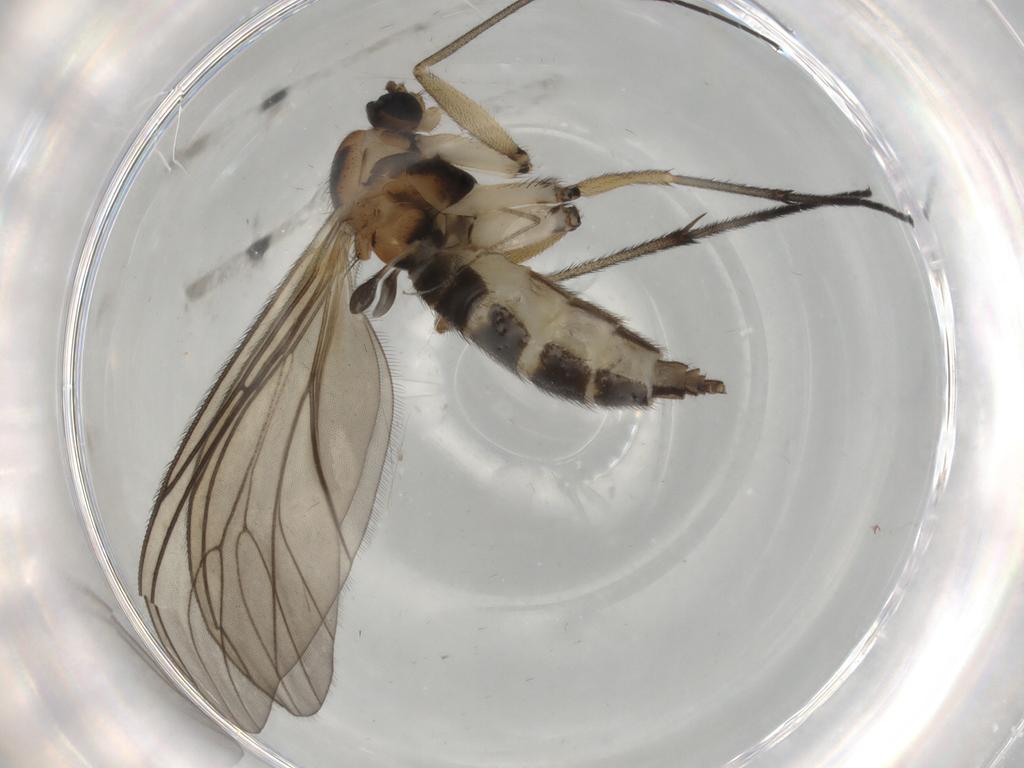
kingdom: Animalia
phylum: Arthropoda
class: Insecta
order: Diptera
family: Sciaridae
